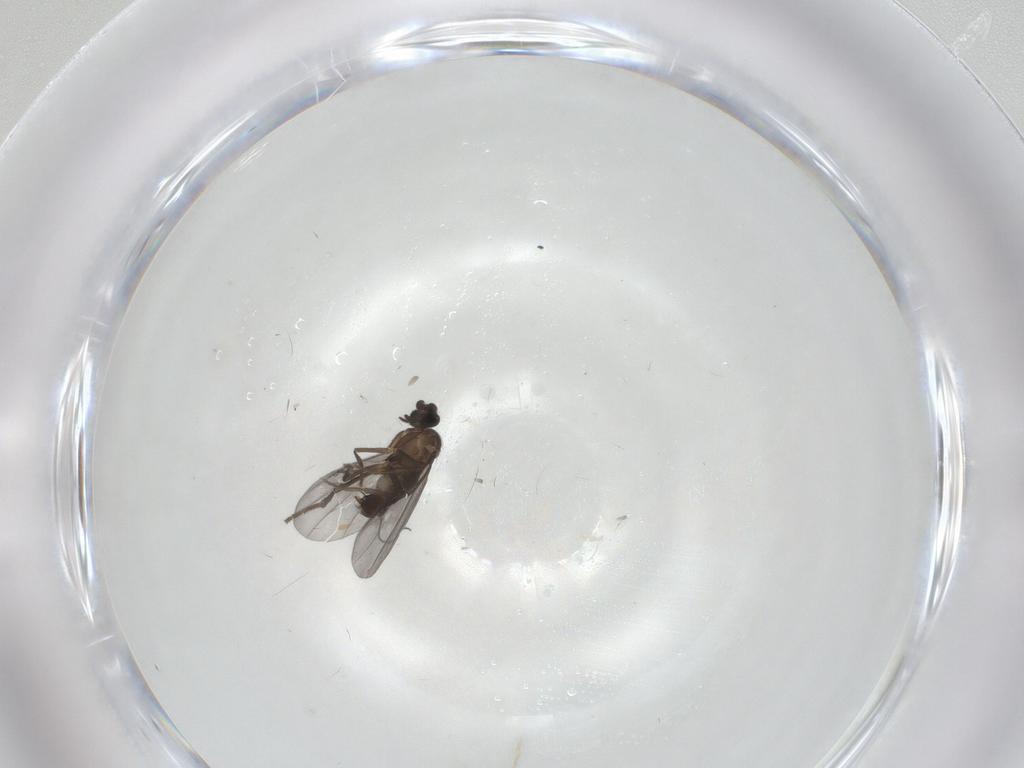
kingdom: Animalia
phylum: Arthropoda
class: Insecta
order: Diptera
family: Phoridae
